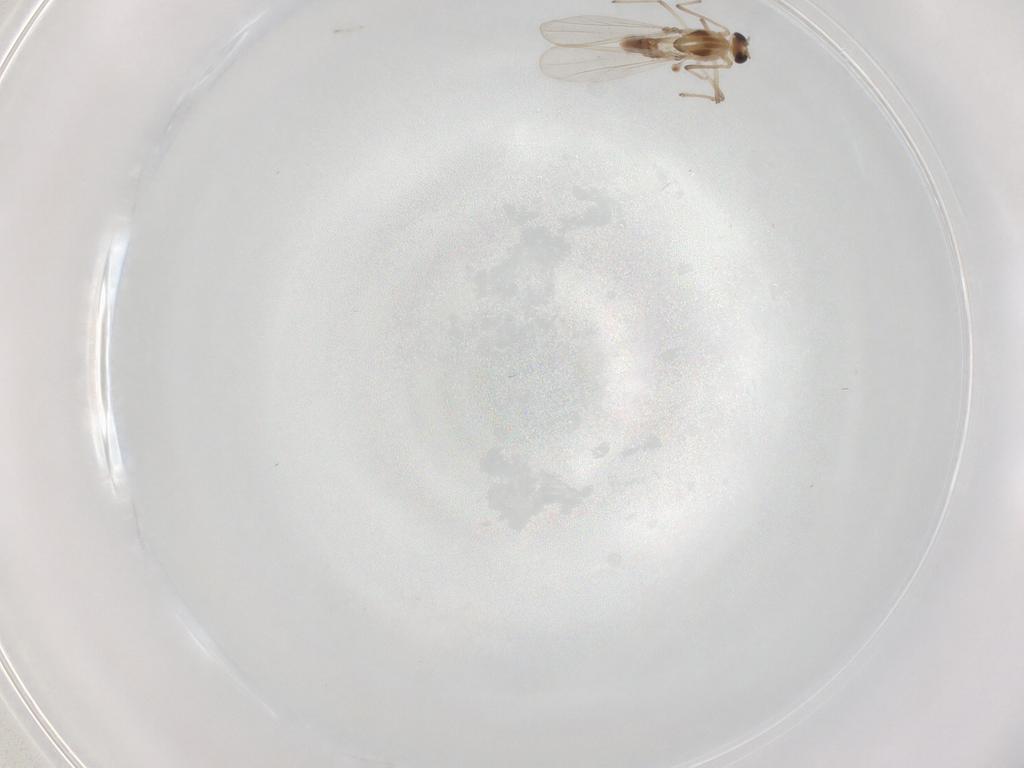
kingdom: Animalia
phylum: Arthropoda
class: Insecta
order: Diptera
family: Chironomidae
